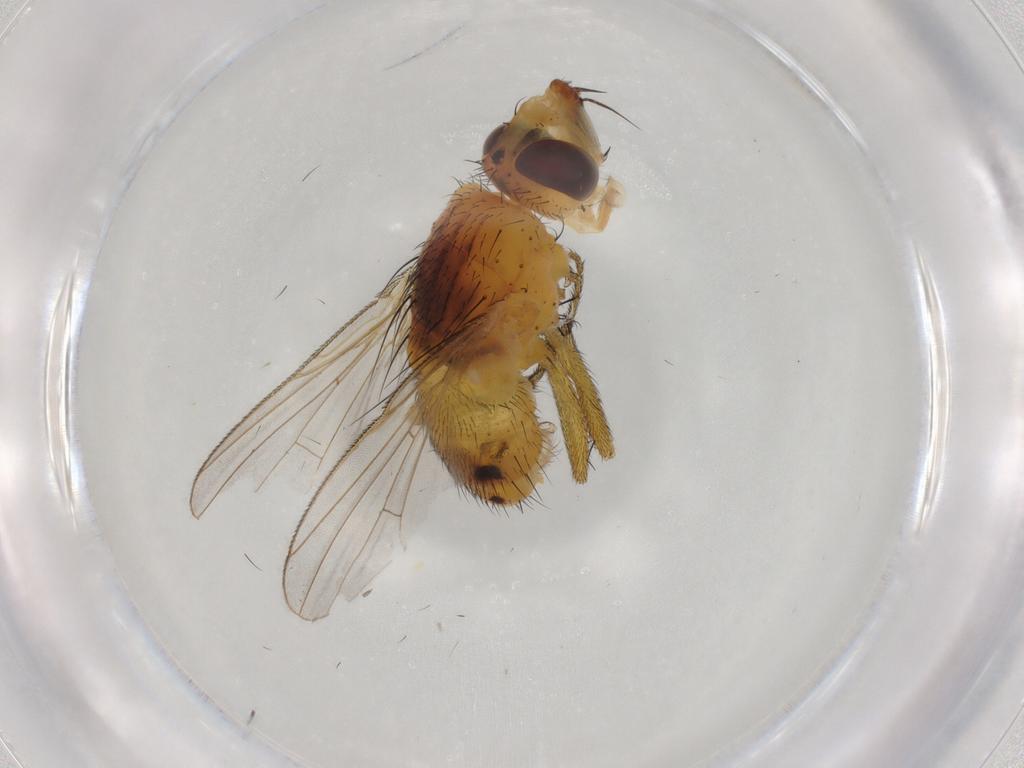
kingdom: Animalia
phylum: Arthropoda
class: Insecta
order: Diptera
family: Muscidae
